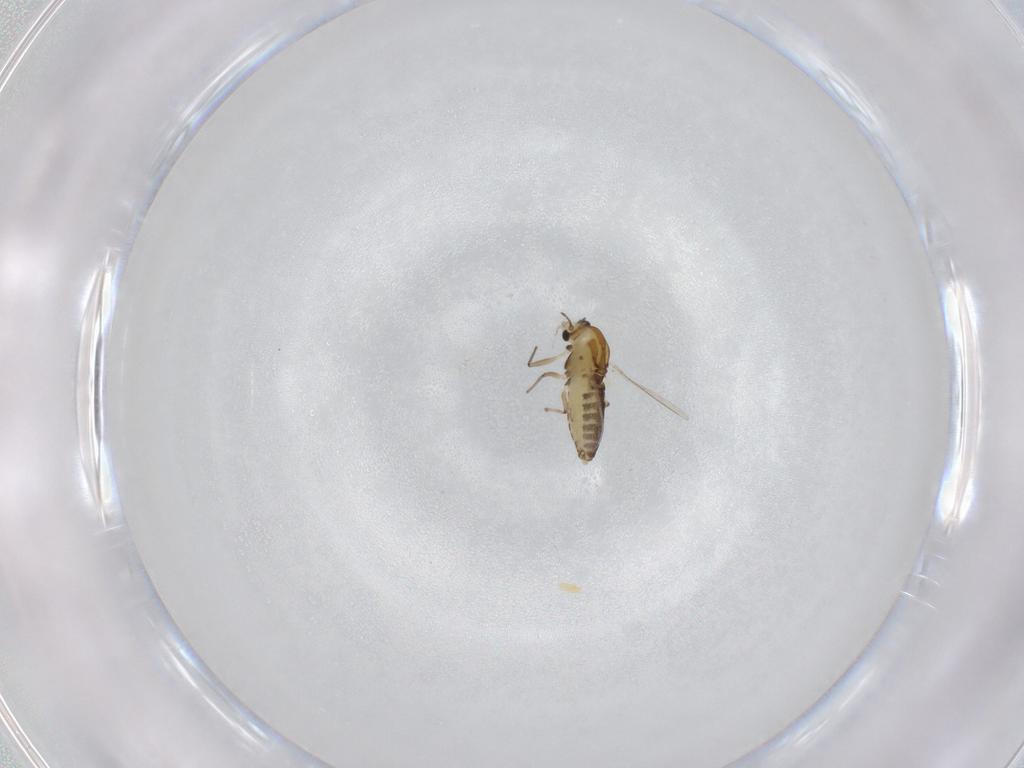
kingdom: Animalia
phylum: Arthropoda
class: Insecta
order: Diptera
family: Chironomidae
